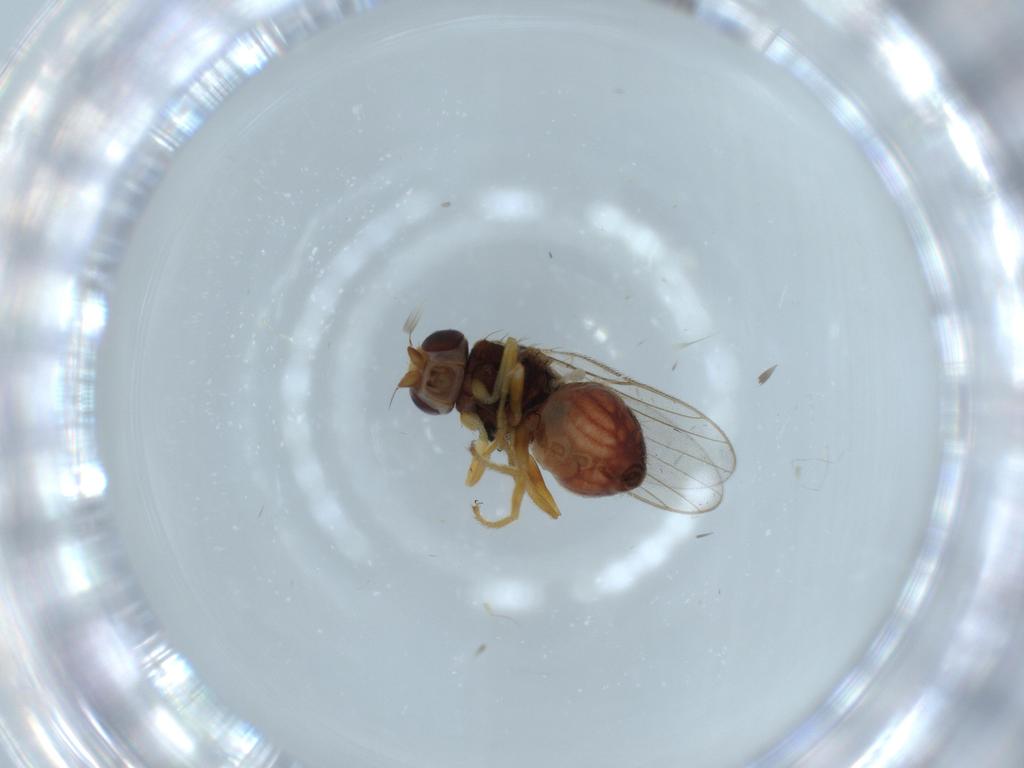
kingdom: Animalia
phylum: Arthropoda
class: Insecta
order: Diptera
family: Chloropidae
